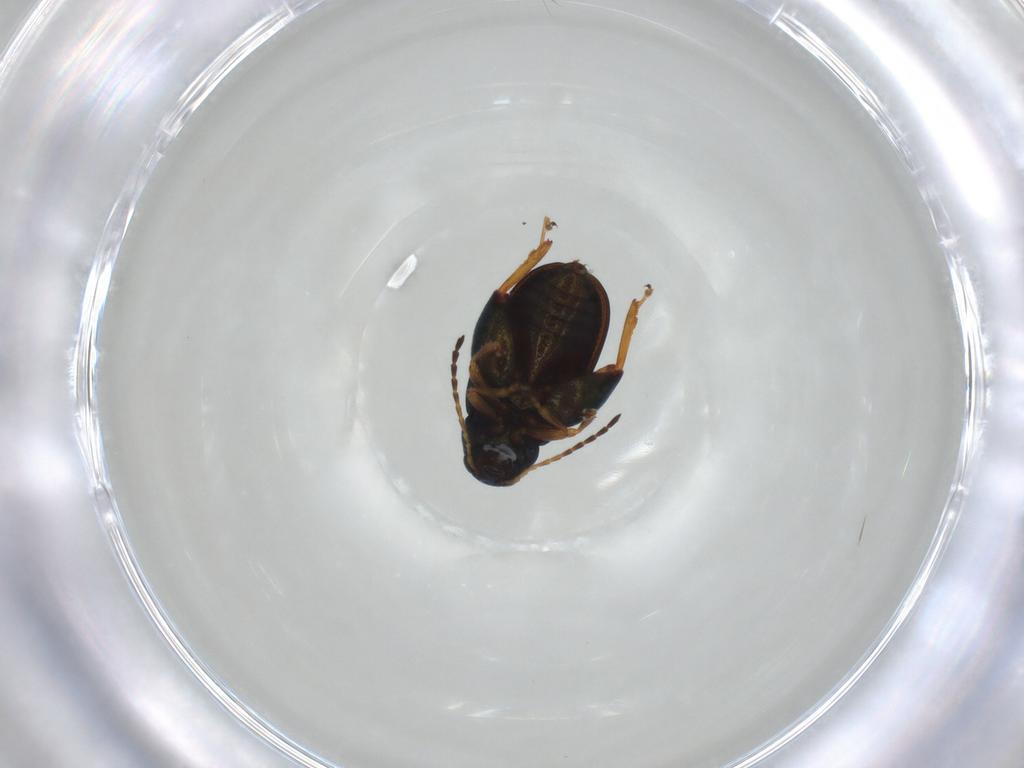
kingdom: Animalia
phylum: Arthropoda
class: Insecta
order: Coleoptera
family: Chrysomelidae
